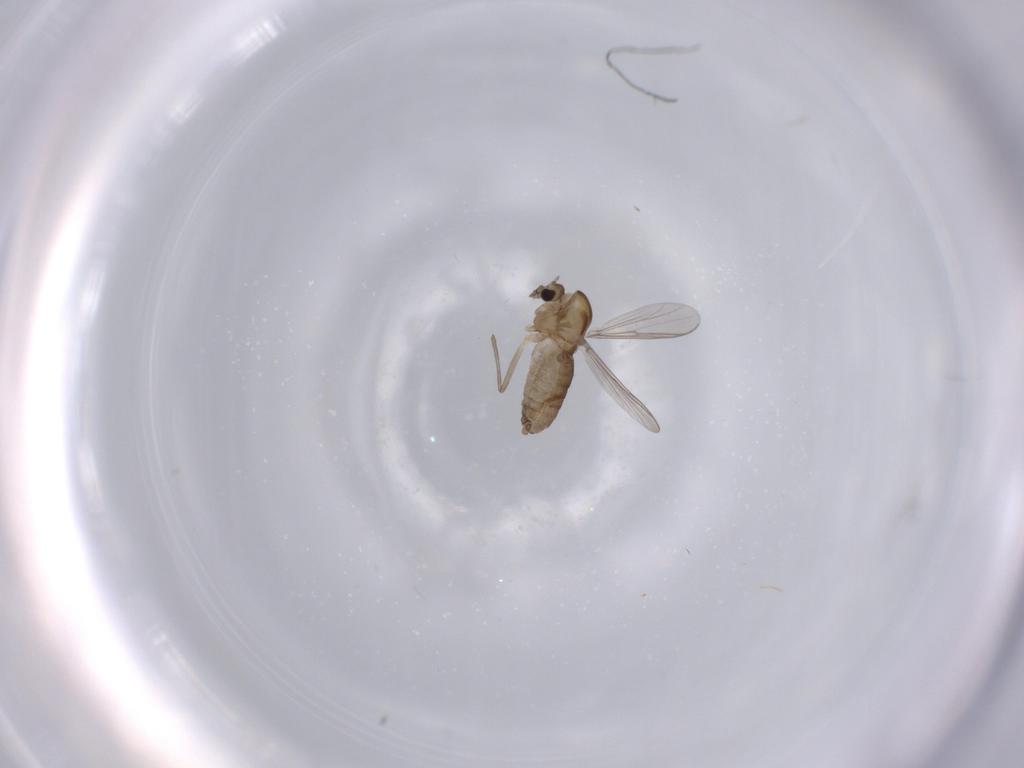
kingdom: Animalia
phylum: Arthropoda
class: Insecta
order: Diptera
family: Chironomidae
